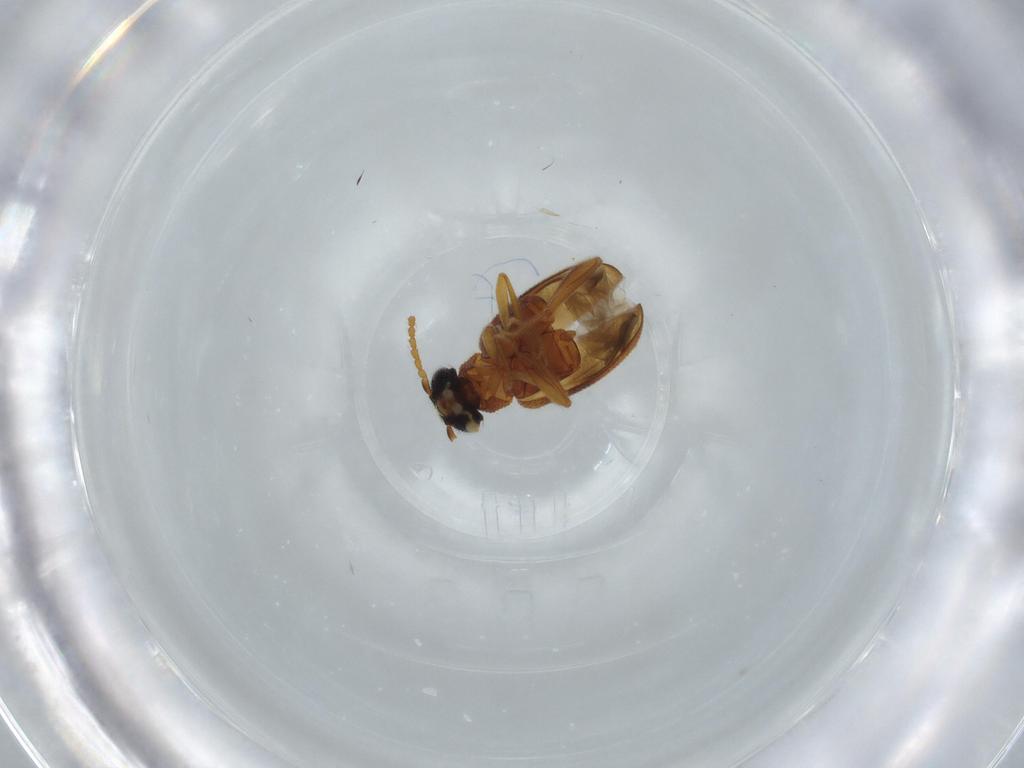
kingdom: Animalia
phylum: Arthropoda
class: Insecta
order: Coleoptera
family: Aderidae
